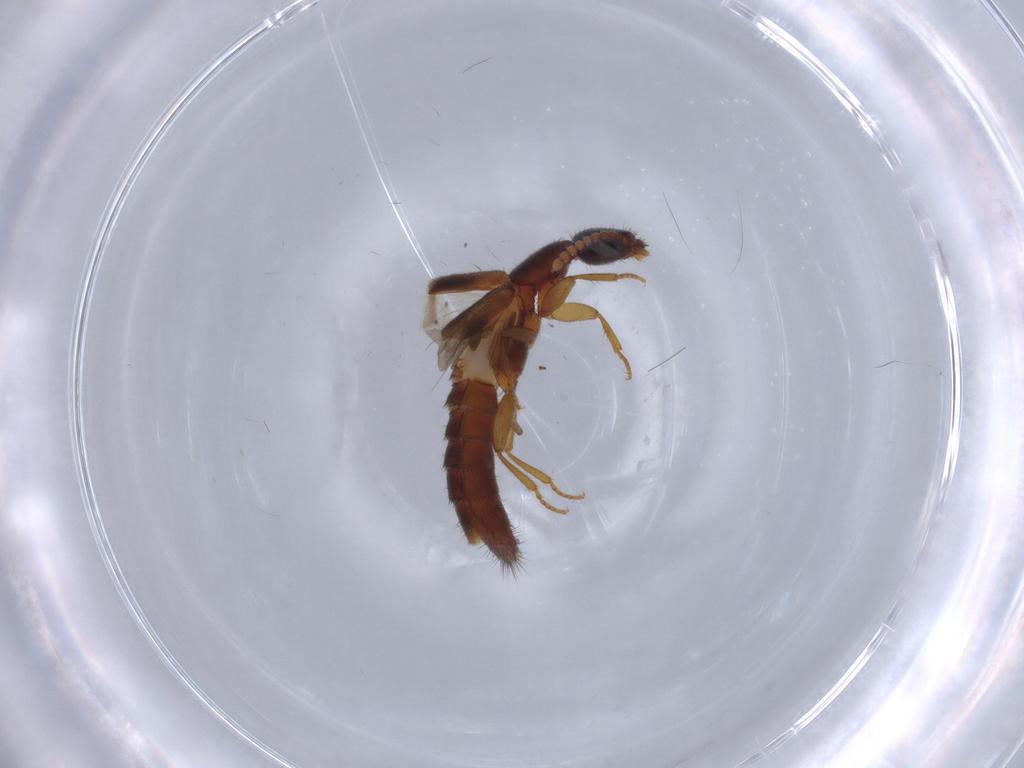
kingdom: Animalia
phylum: Arthropoda
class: Insecta
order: Coleoptera
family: Staphylinidae
